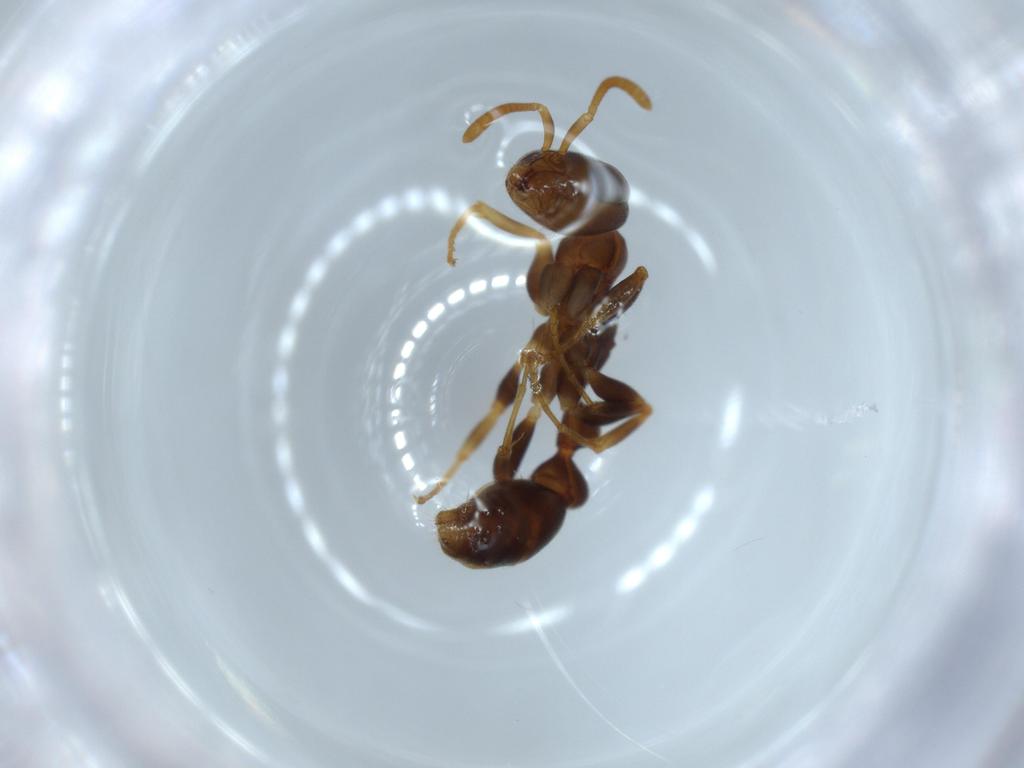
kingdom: Animalia
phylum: Arthropoda
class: Insecta
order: Hymenoptera
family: Formicidae
